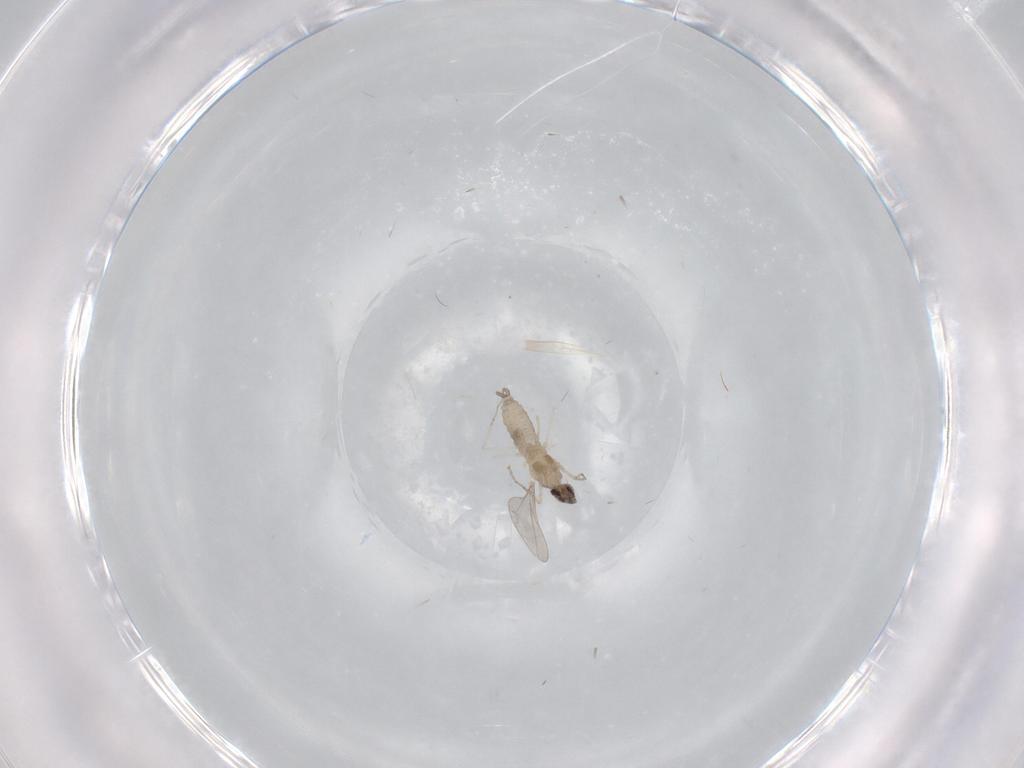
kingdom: Animalia
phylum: Arthropoda
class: Insecta
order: Diptera
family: Cecidomyiidae
